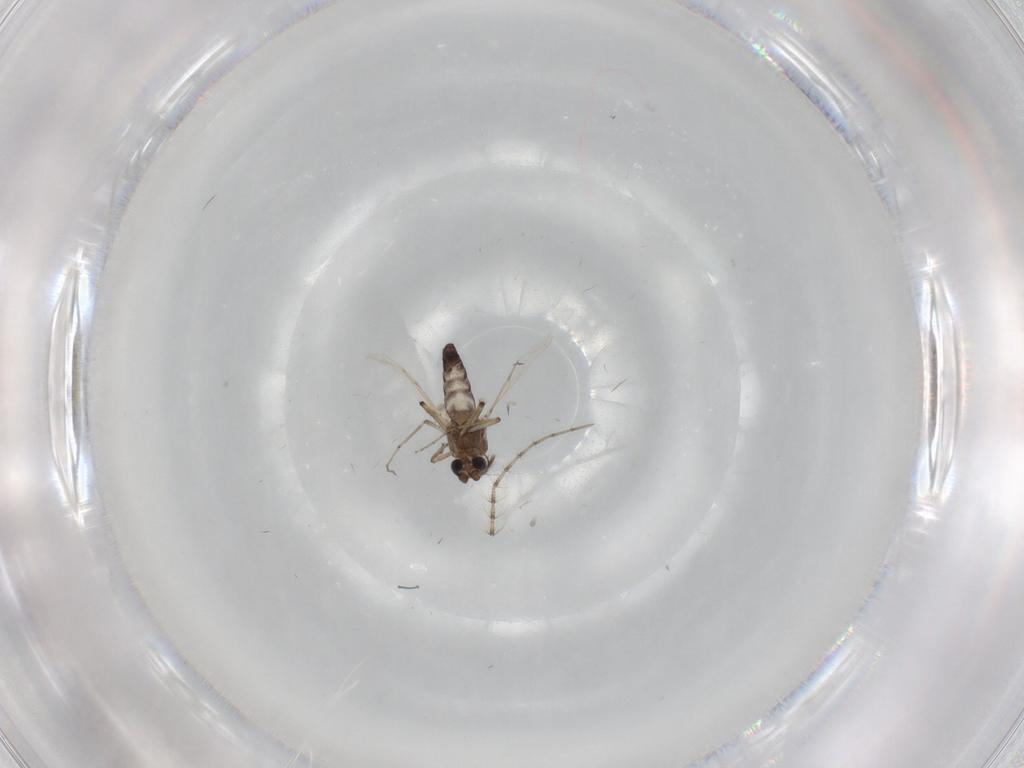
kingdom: Animalia
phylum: Arthropoda
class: Insecta
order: Diptera
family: Ceratopogonidae
